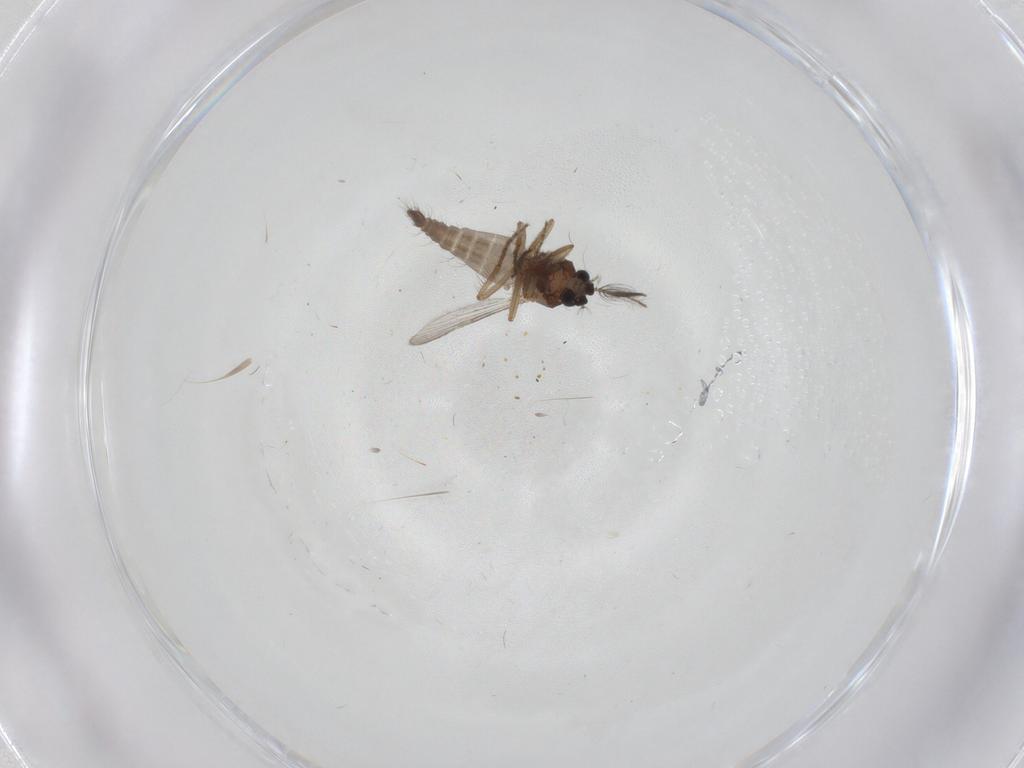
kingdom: Animalia
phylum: Arthropoda
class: Insecta
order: Diptera
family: Ceratopogonidae
